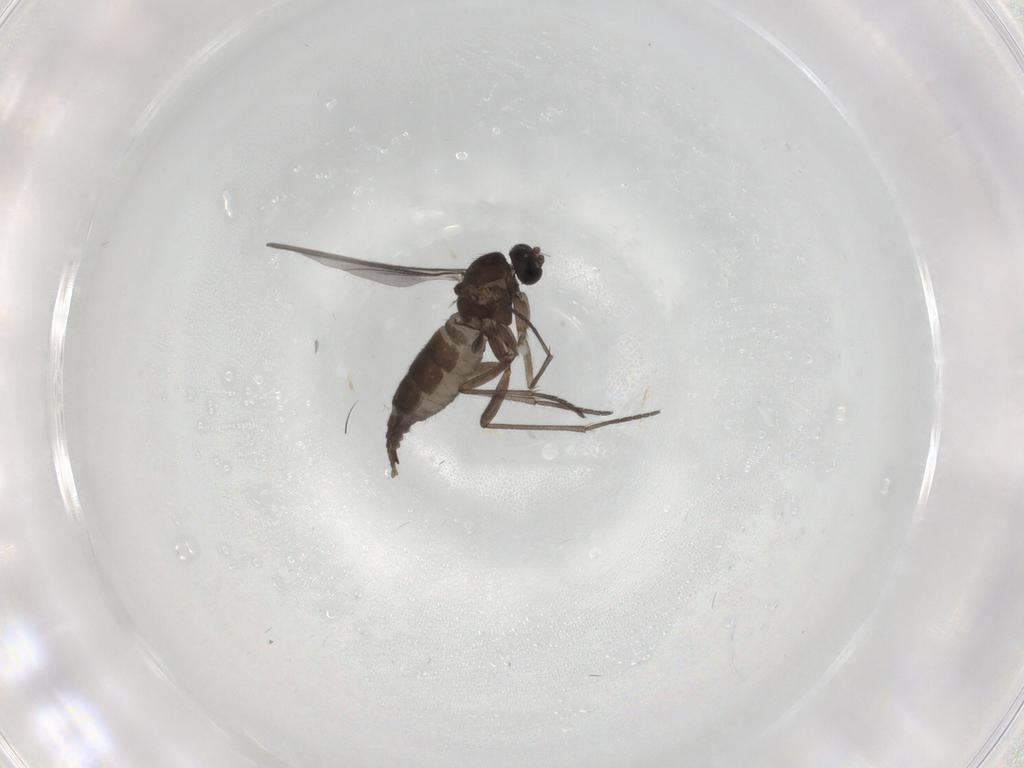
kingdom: Animalia
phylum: Arthropoda
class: Insecta
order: Diptera
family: Sciaridae
